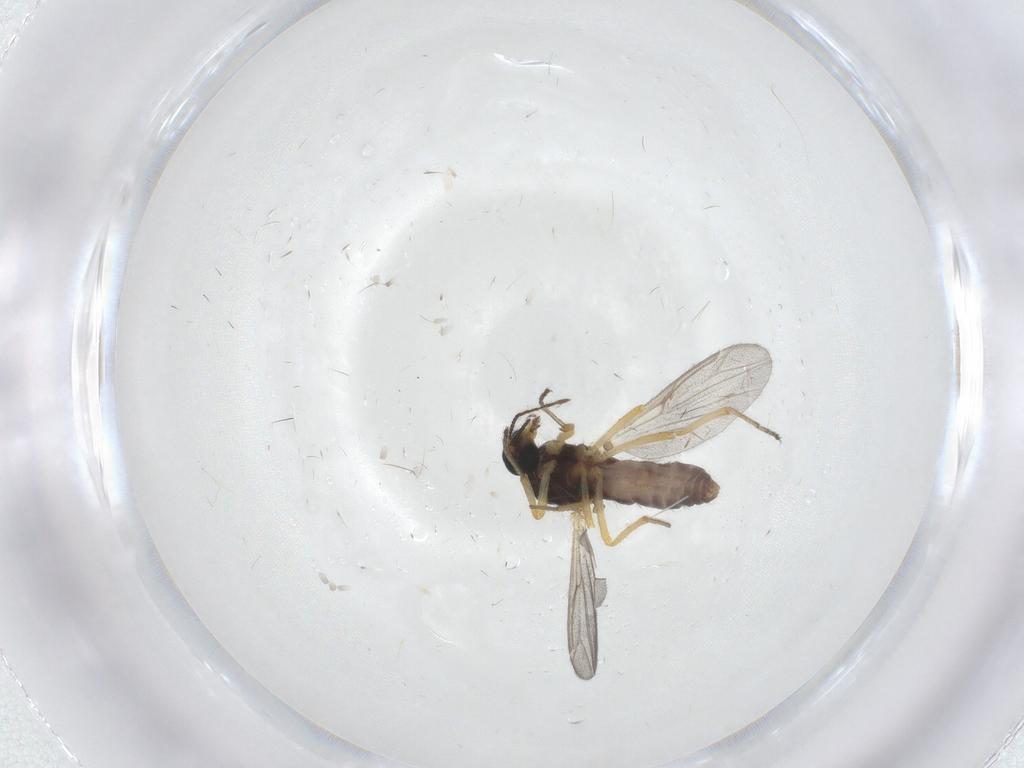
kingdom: Animalia
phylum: Arthropoda
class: Insecta
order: Diptera
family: Ceratopogonidae
